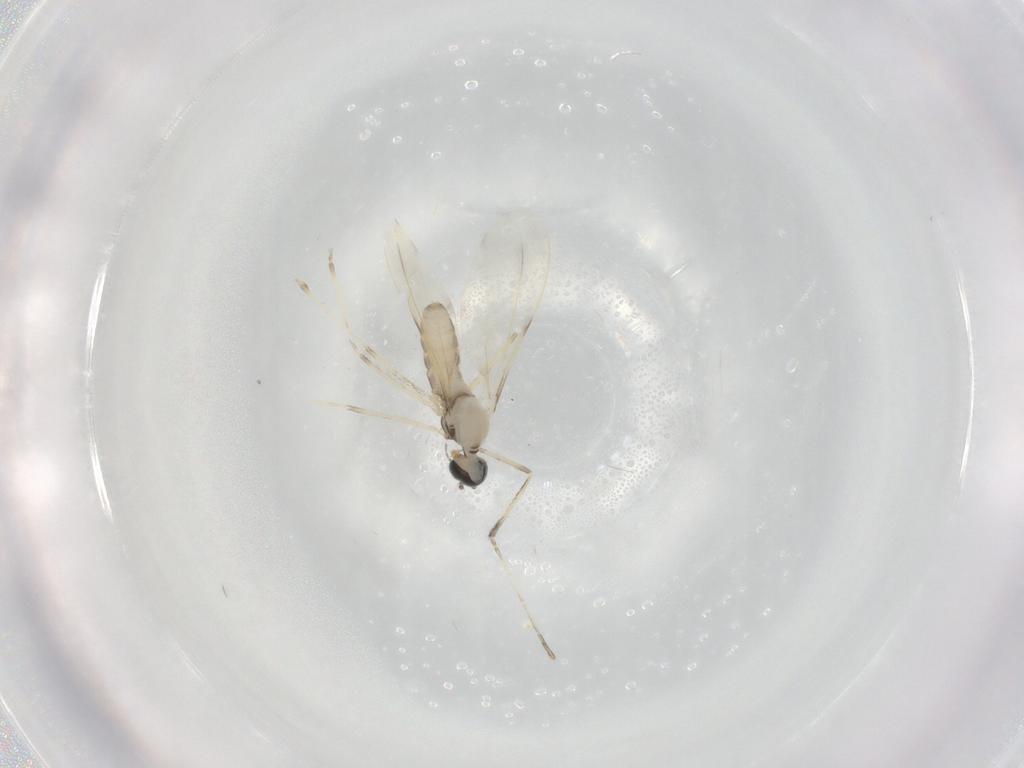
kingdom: Animalia
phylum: Arthropoda
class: Insecta
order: Diptera
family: Cecidomyiidae
